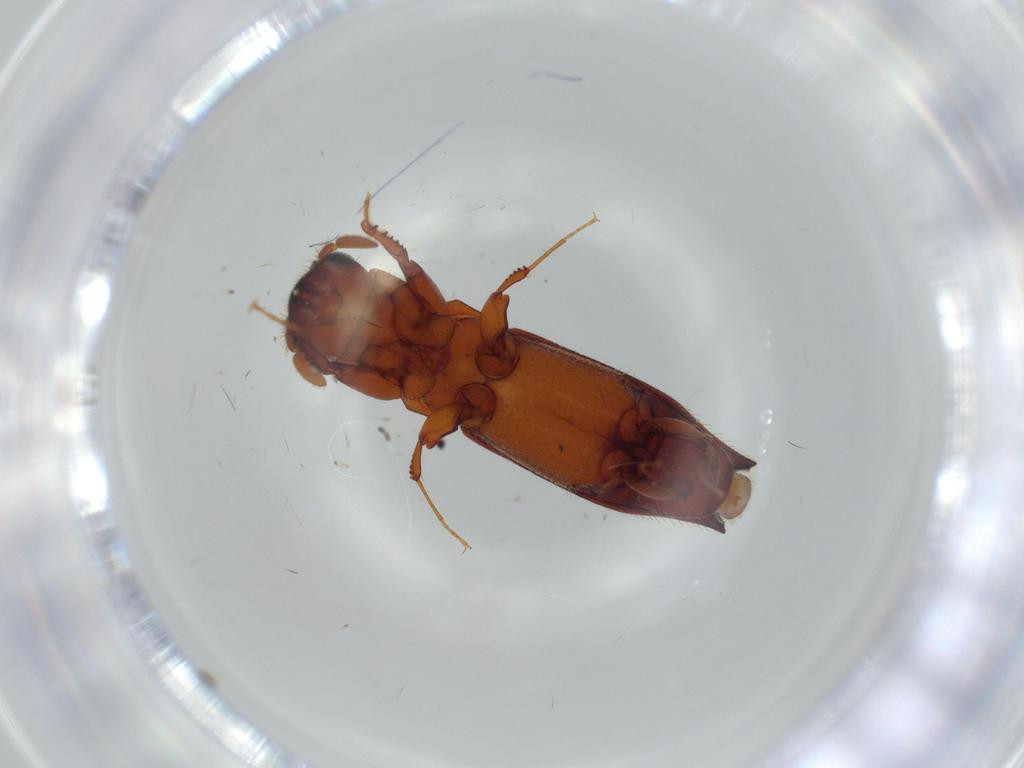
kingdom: Animalia
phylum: Arthropoda
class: Insecta
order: Coleoptera
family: Curculionidae
